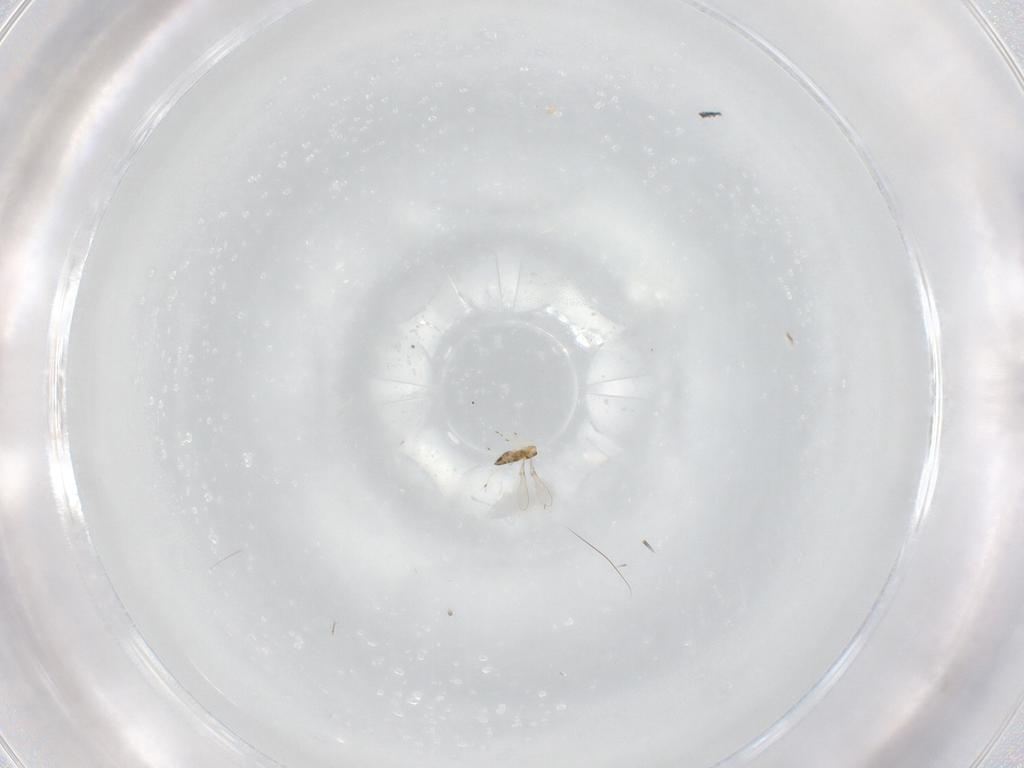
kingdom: Animalia
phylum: Arthropoda
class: Insecta
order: Hymenoptera
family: Mymaridae
